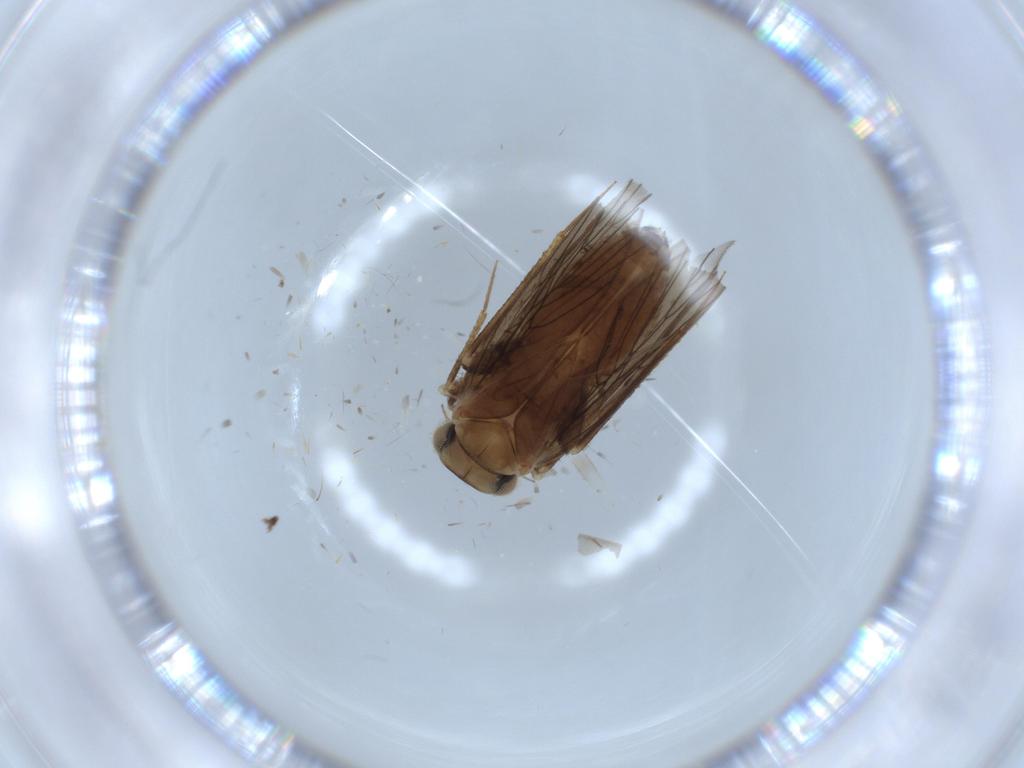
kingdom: Animalia
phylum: Arthropoda
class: Insecta
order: Psocodea
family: Lepidopsocidae
